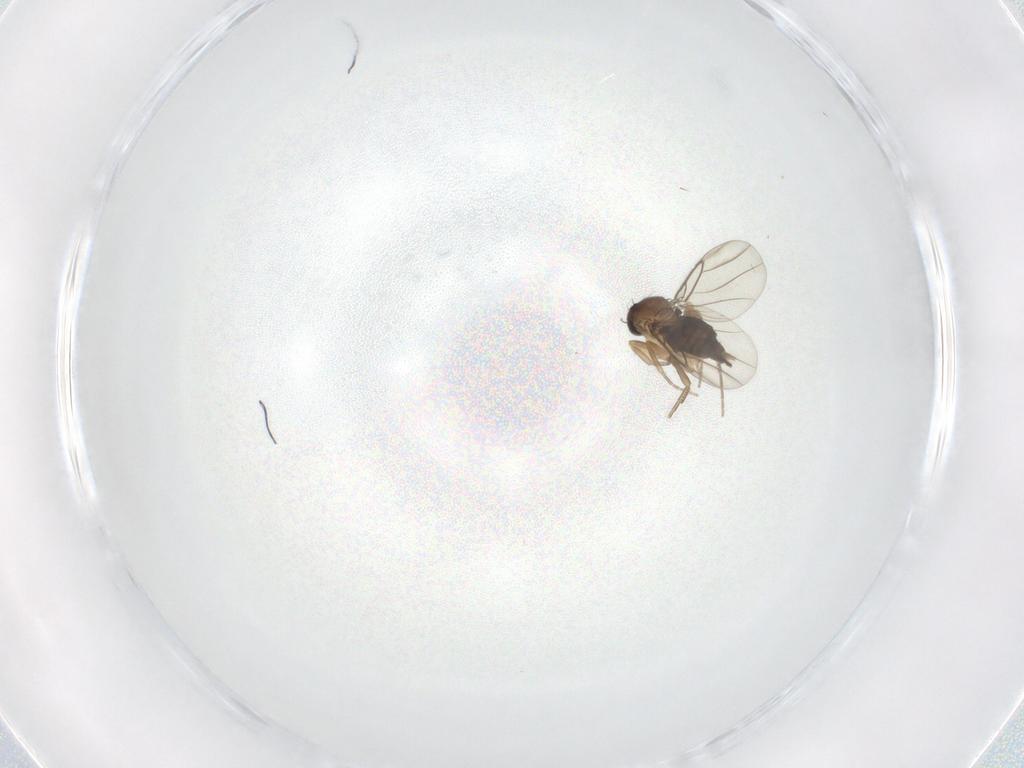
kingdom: Animalia
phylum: Arthropoda
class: Insecta
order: Diptera
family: Phoridae
